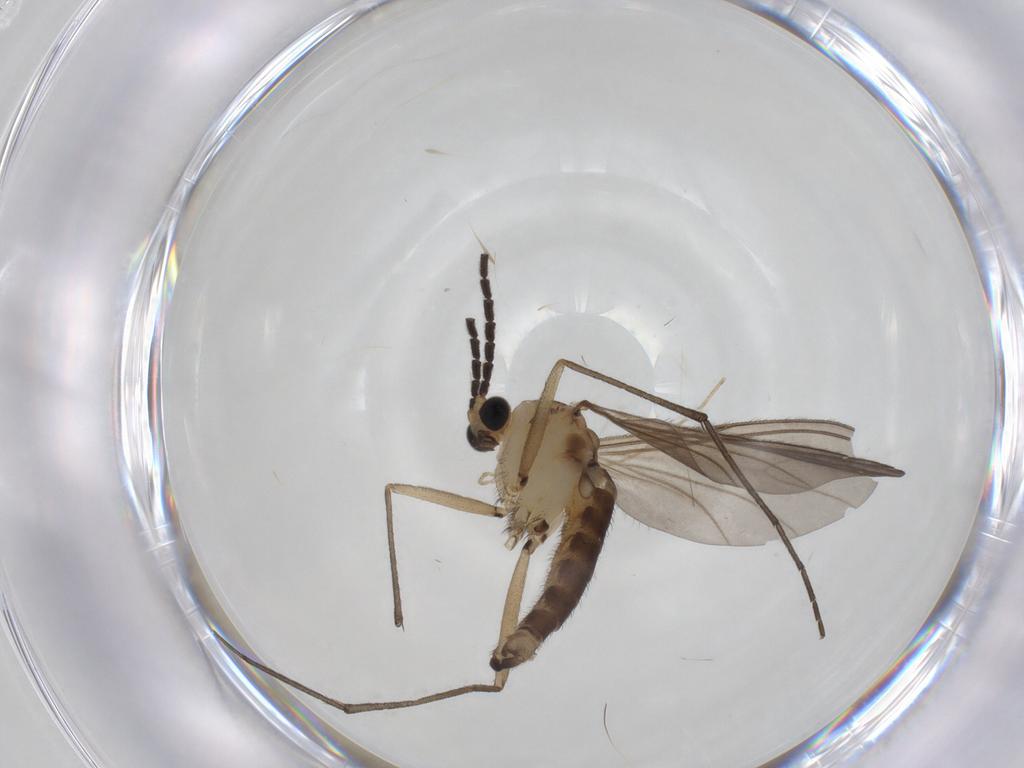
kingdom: Animalia
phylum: Arthropoda
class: Insecta
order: Diptera
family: Sciaridae
